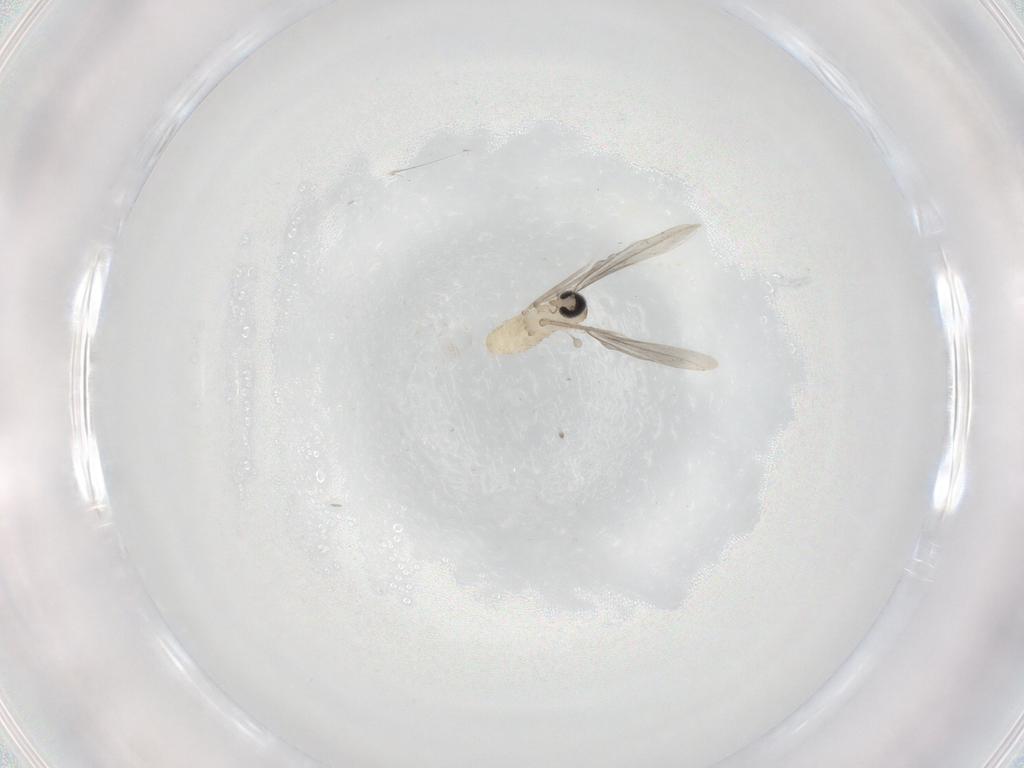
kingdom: Animalia
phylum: Arthropoda
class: Insecta
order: Diptera
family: Cecidomyiidae
